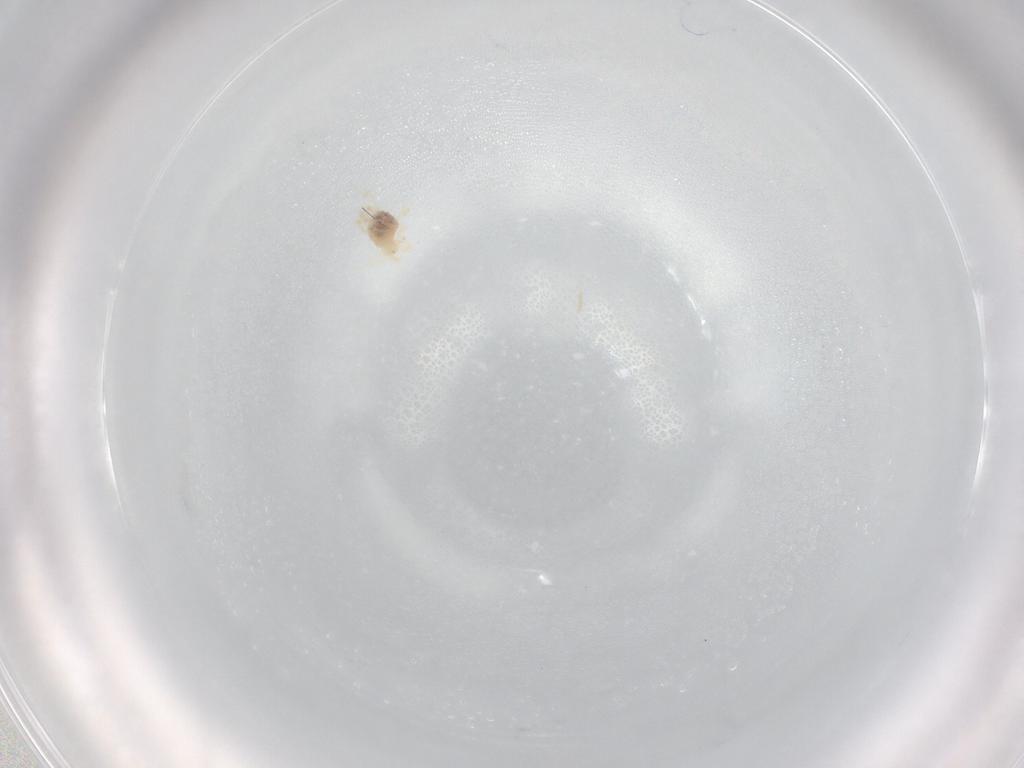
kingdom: Animalia
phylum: Arthropoda
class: Arachnida
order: Trombidiformes
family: Anystidae
